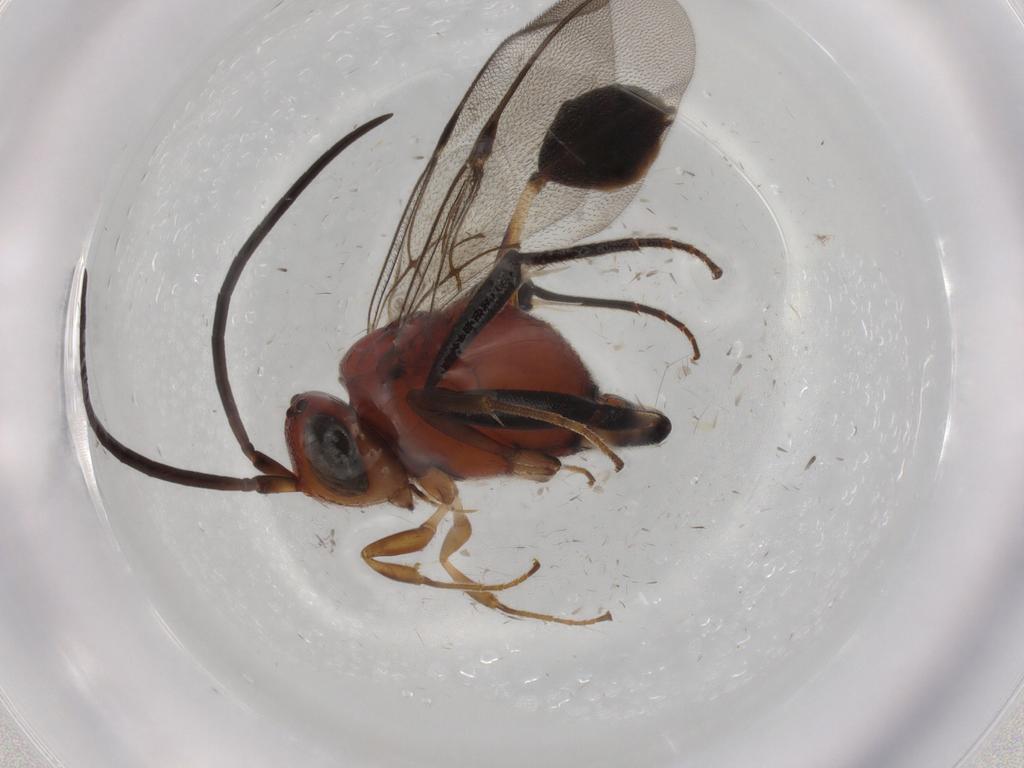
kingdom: Animalia
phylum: Arthropoda
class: Insecta
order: Hymenoptera
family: Evaniidae
